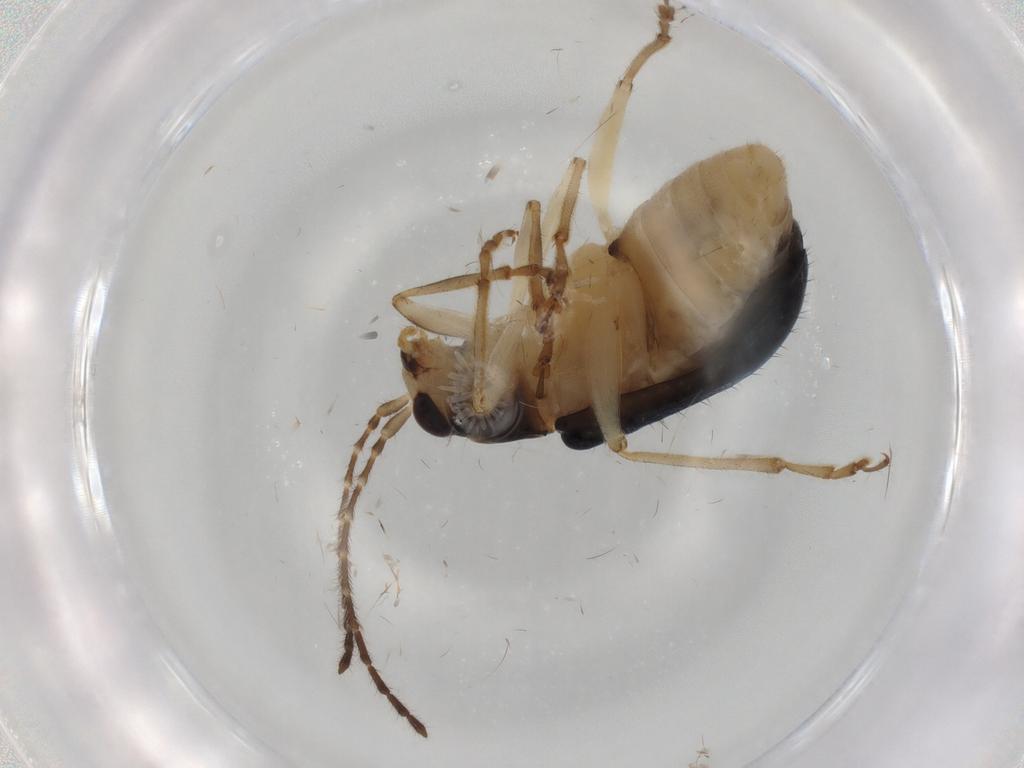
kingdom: Animalia
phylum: Arthropoda
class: Insecta
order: Coleoptera
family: Chrysomelidae
